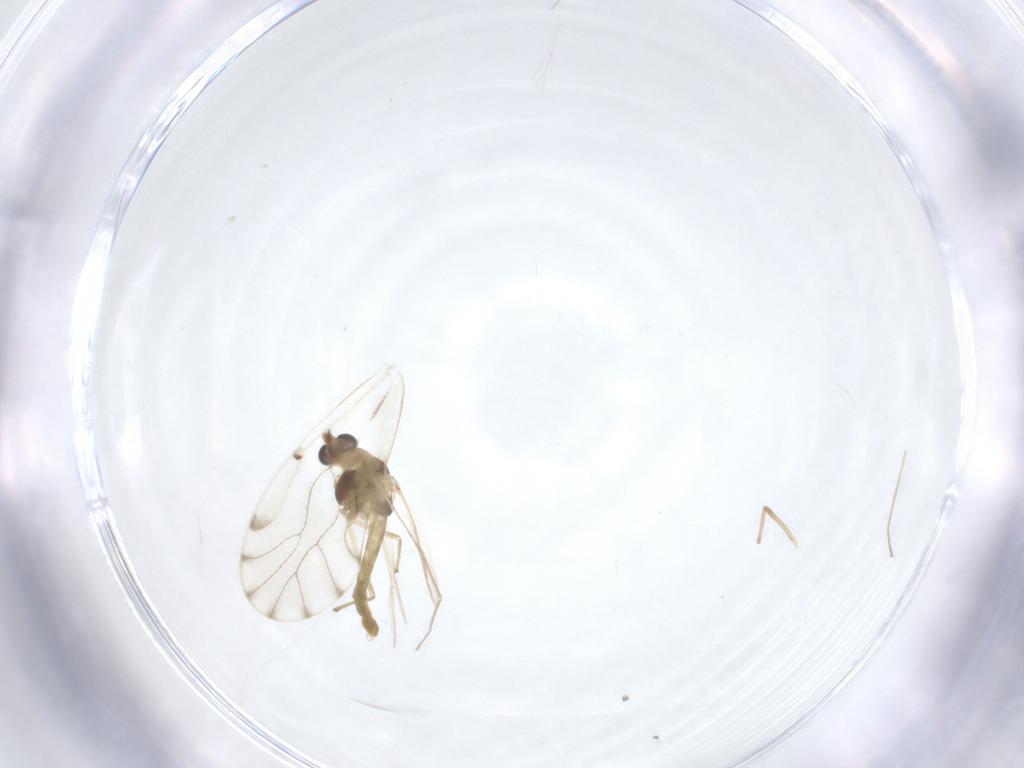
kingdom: Animalia
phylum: Arthropoda
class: Insecta
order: Diptera
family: Chironomidae
